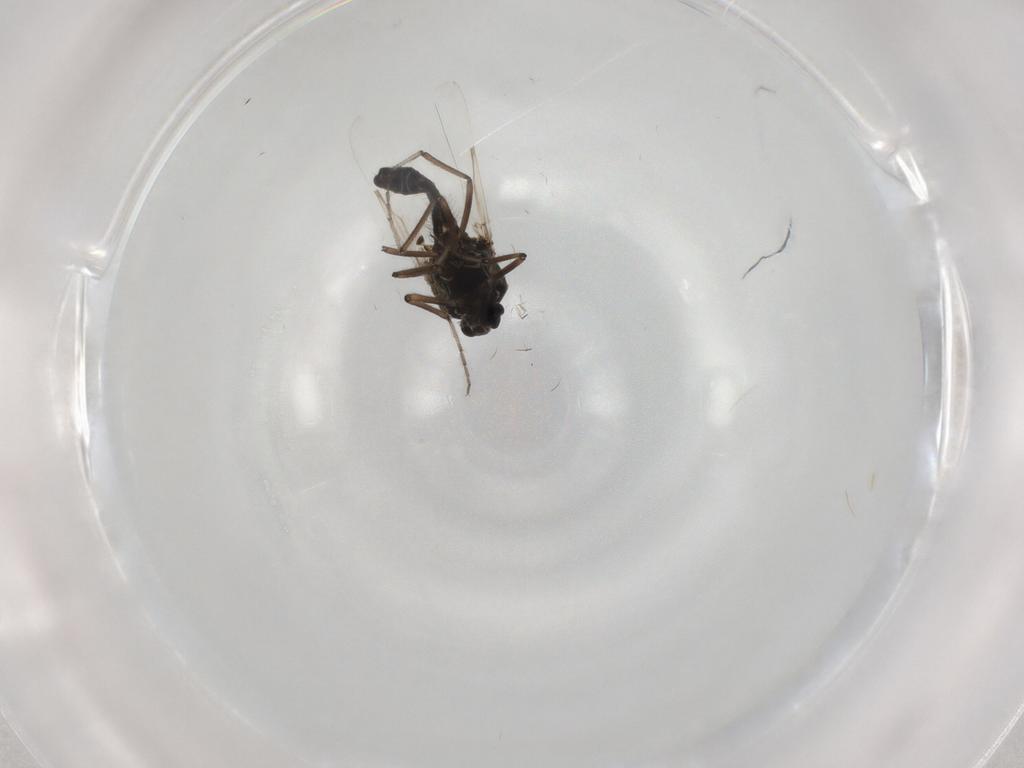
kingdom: Animalia
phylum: Arthropoda
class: Insecta
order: Diptera
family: Ceratopogonidae
